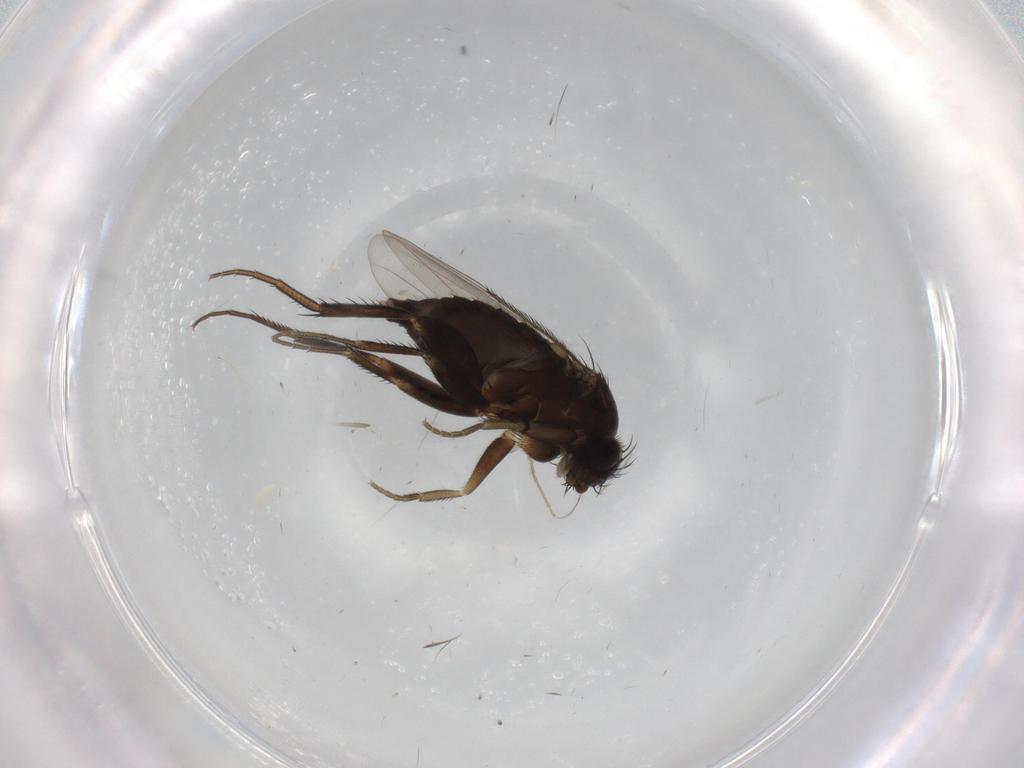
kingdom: Animalia
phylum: Arthropoda
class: Insecta
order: Diptera
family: Phoridae
